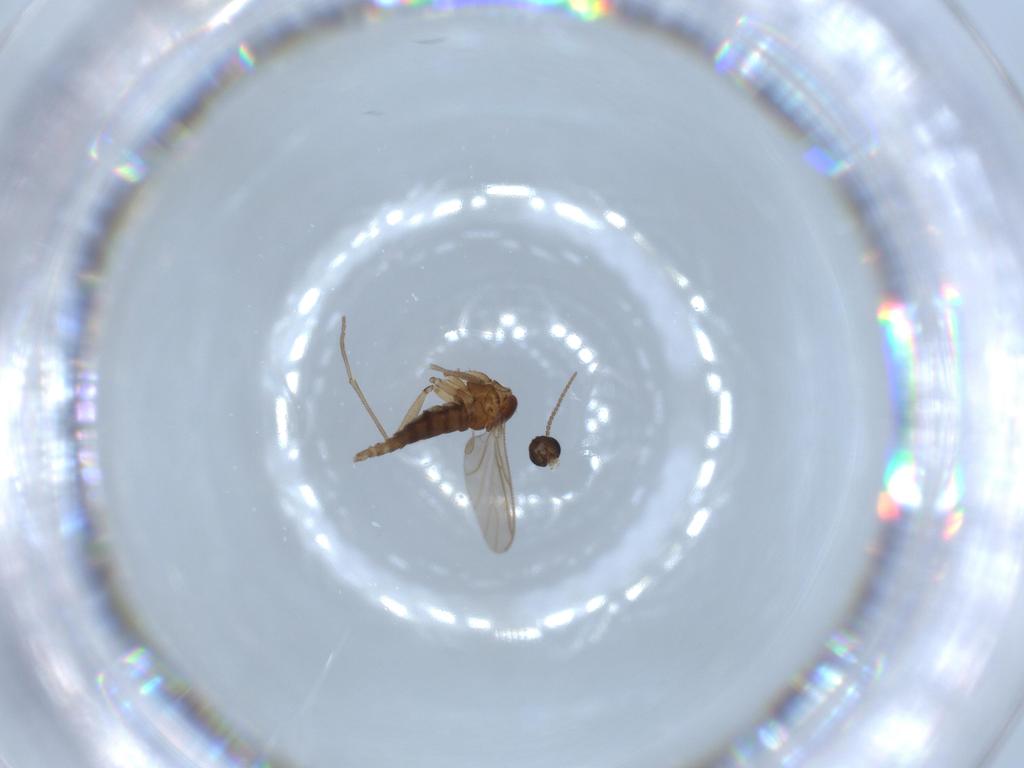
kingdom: Animalia
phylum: Arthropoda
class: Insecta
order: Diptera
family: Sciaridae
